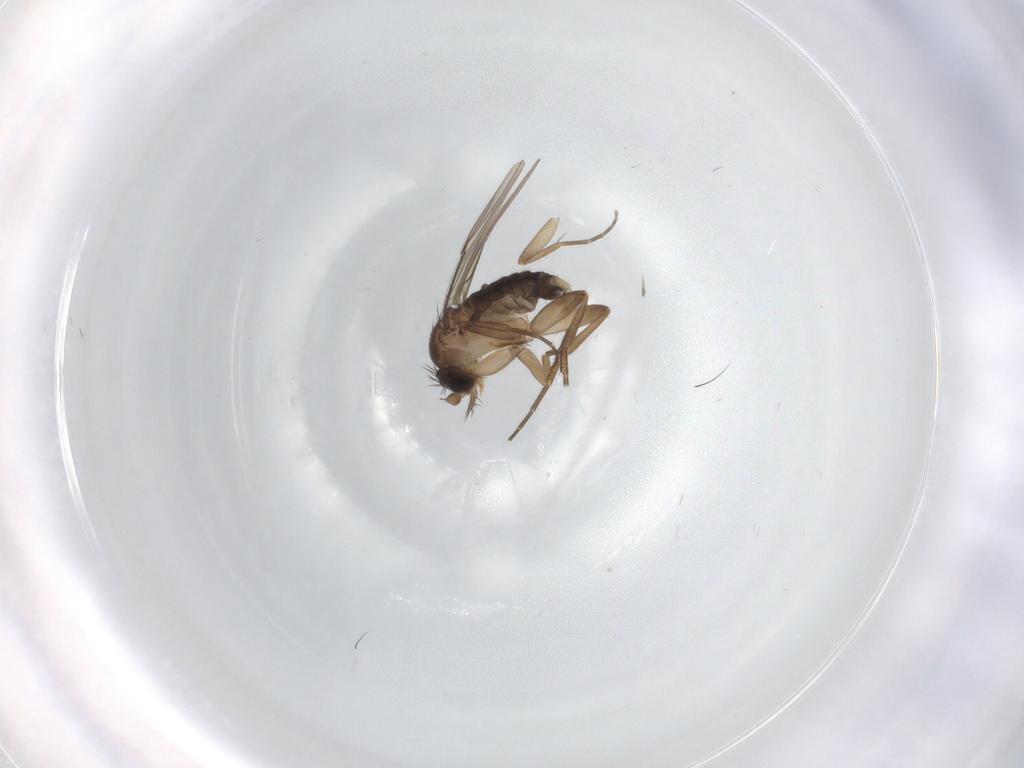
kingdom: Animalia
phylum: Arthropoda
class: Insecta
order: Diptera
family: Phoridae
